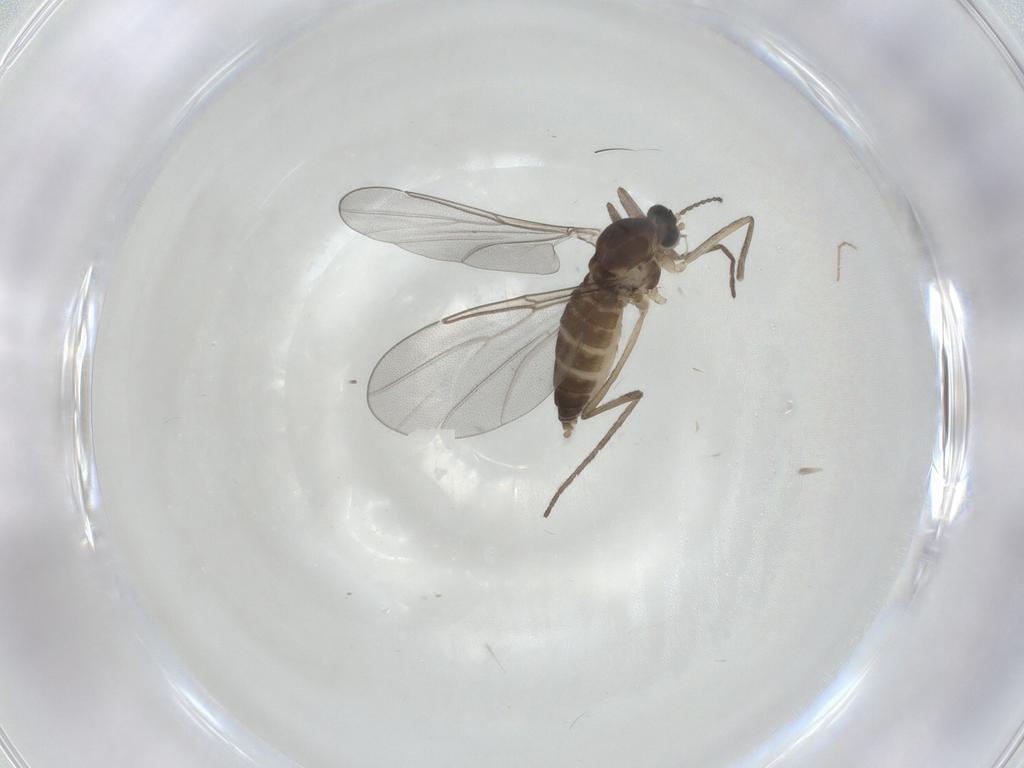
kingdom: Animalia
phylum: Arthropoda
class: Insecta
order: Diptera
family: Cecidomyiidae
